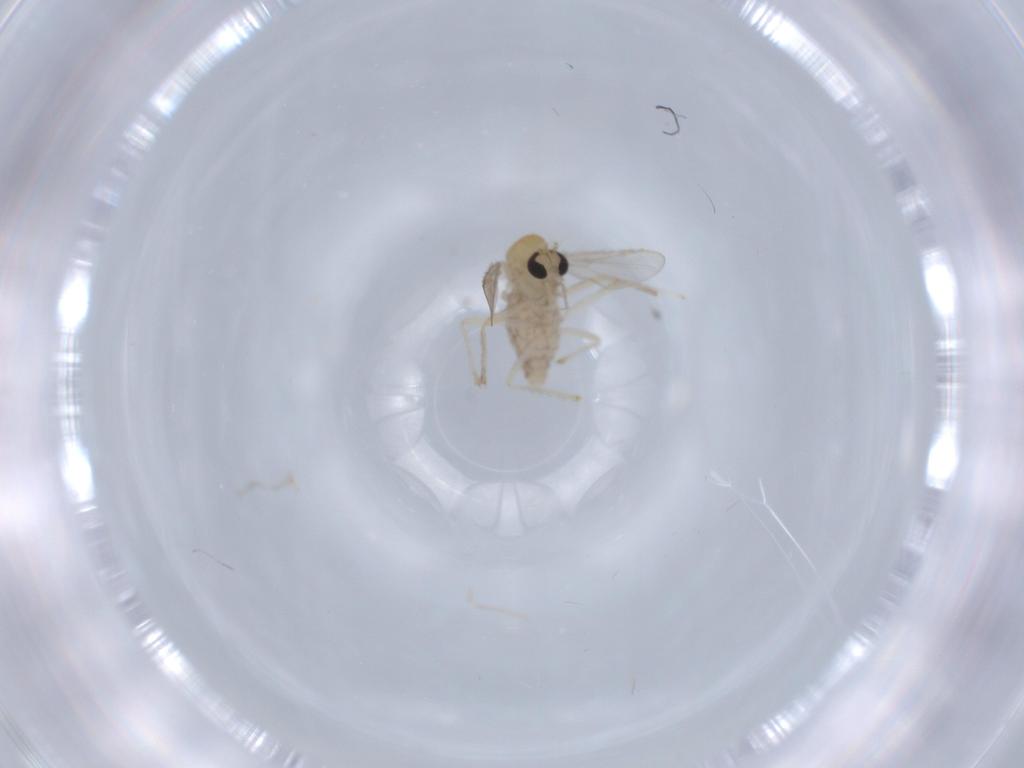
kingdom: Animalia
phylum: Arthropoda
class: Insecta
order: Diptera
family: Chironomidae
